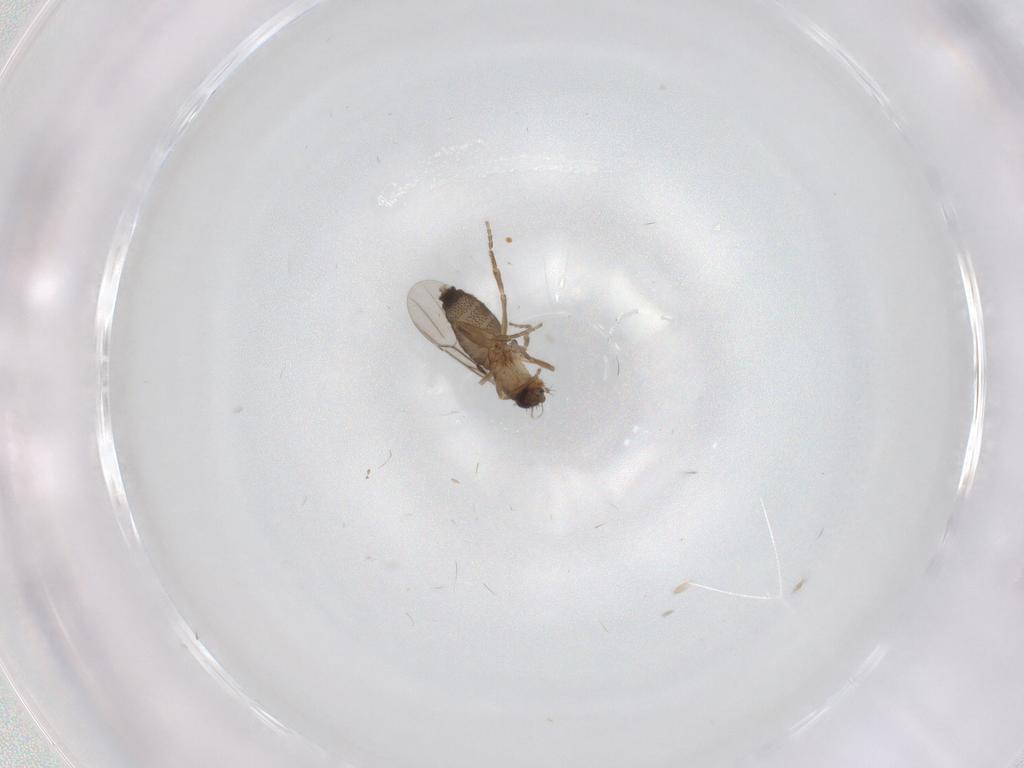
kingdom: Animalia
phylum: Arthropoda
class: Insecta
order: Diptera
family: Phoridae
